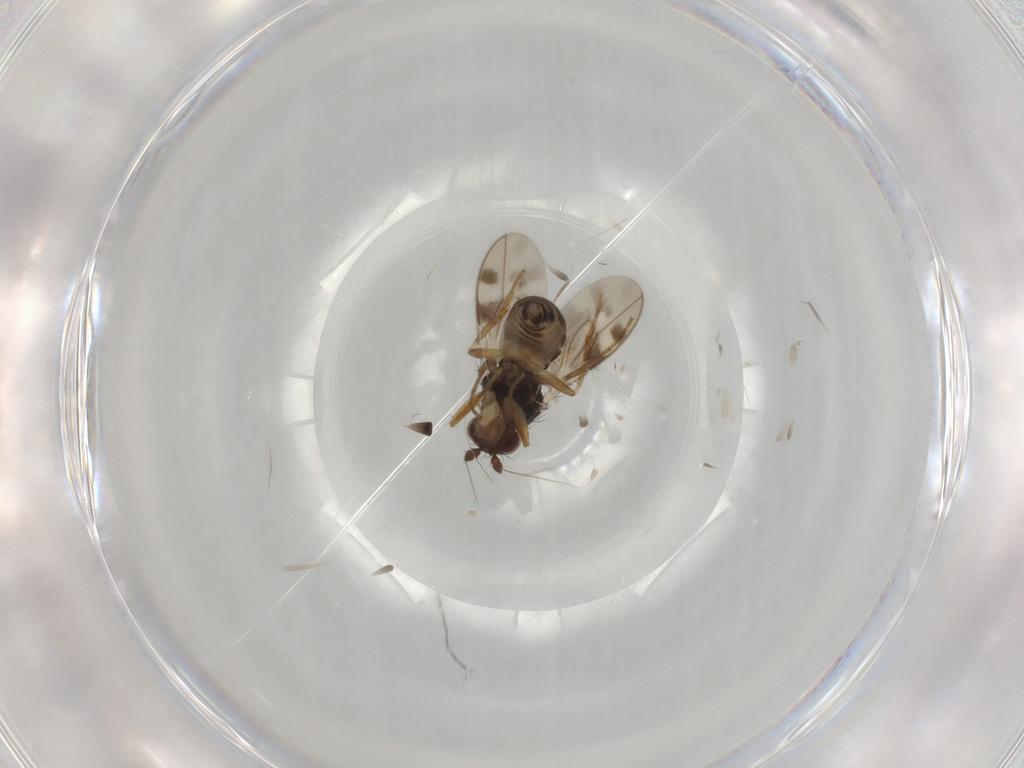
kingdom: Animalia
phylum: Arthropoda
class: Insecta
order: Diptera
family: Sphaeroceridae
